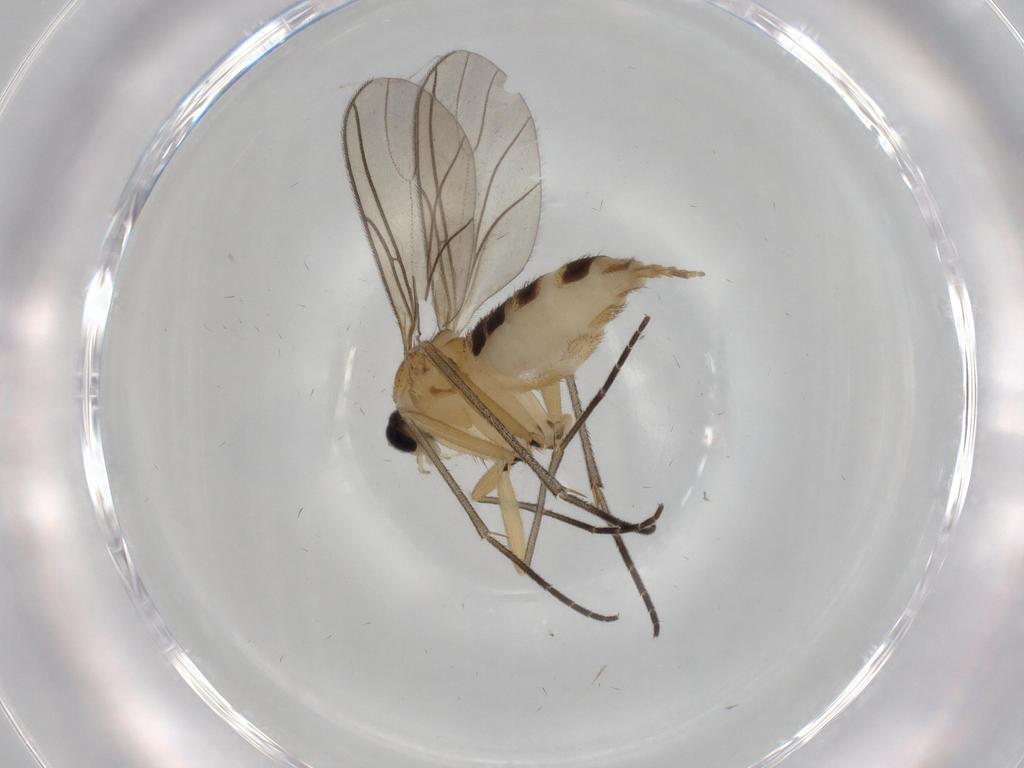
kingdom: Animalia
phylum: Arthropoda
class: Insecta
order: Diptera
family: Sciaridae
